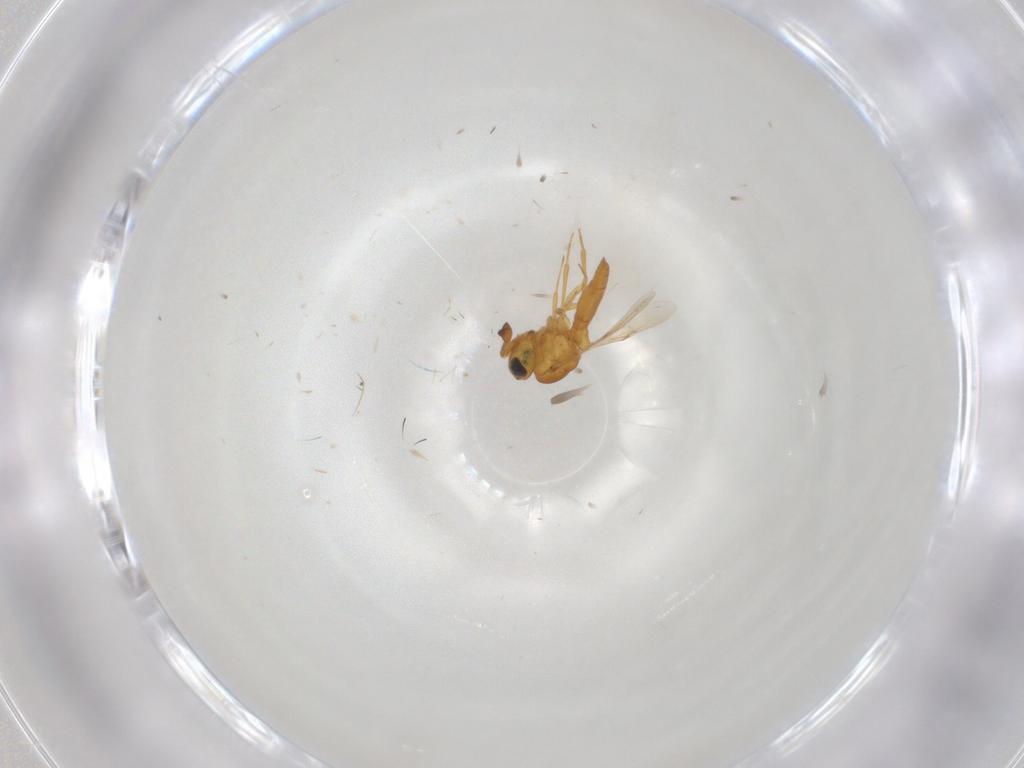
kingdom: Animalia
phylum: Arthropoda
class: Insecta
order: Hymenoptera
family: Scelionidae
